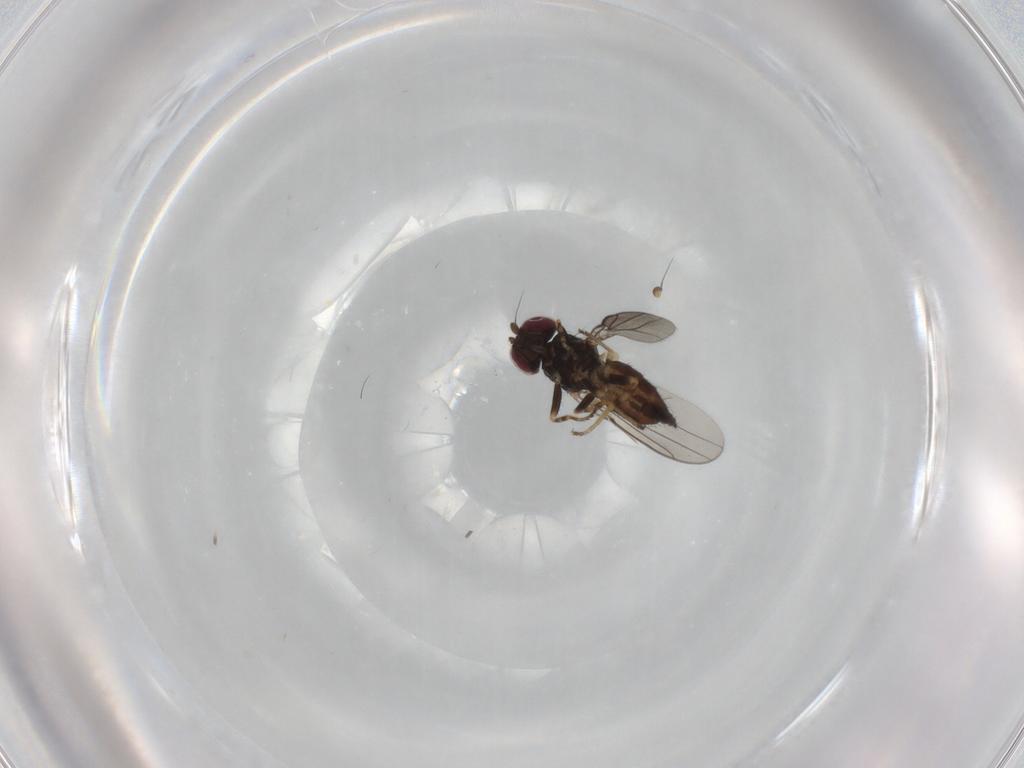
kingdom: Animalia
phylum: Arthropoda
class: Insecta
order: Diptera
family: Chloropidae
